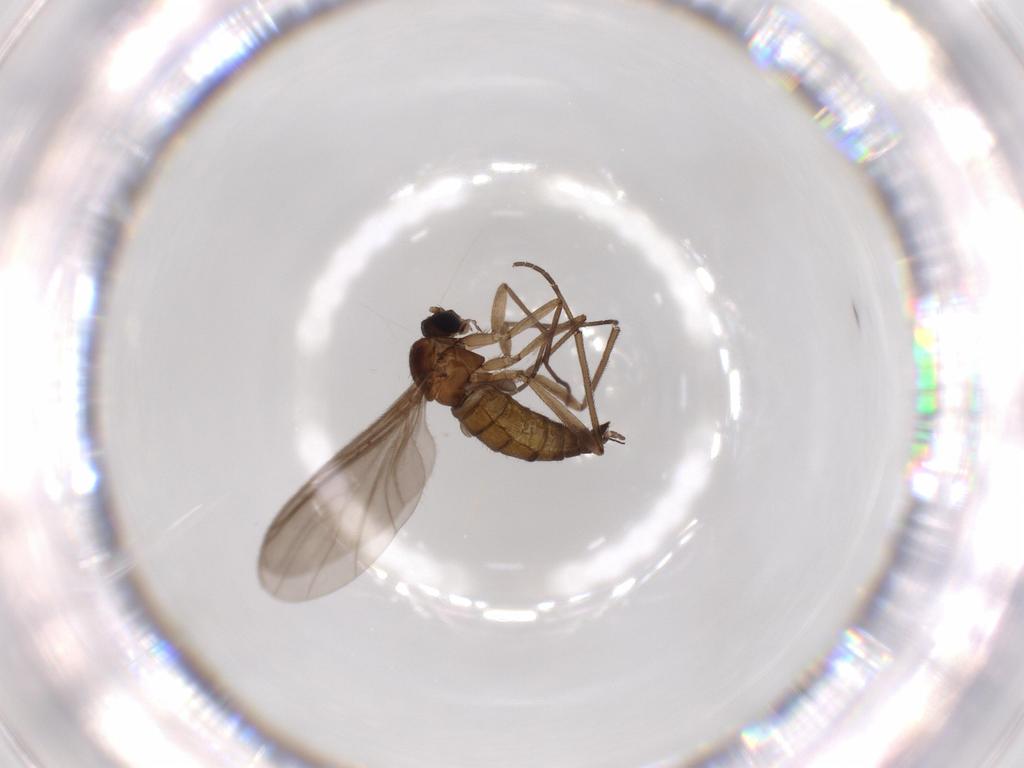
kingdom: Animalia
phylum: Arthropoda
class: Insecta
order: Diptera
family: Sciaridae
